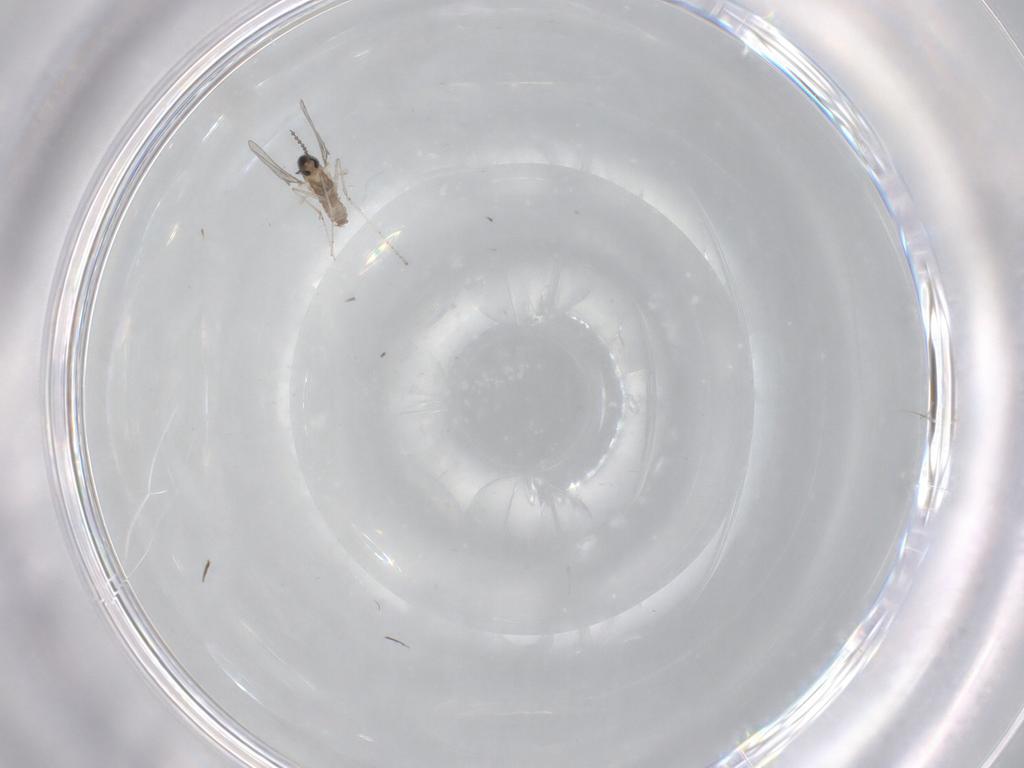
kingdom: Animalia
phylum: Arthropoda
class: Insecta
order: Diptera
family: Cecidomyiidae
